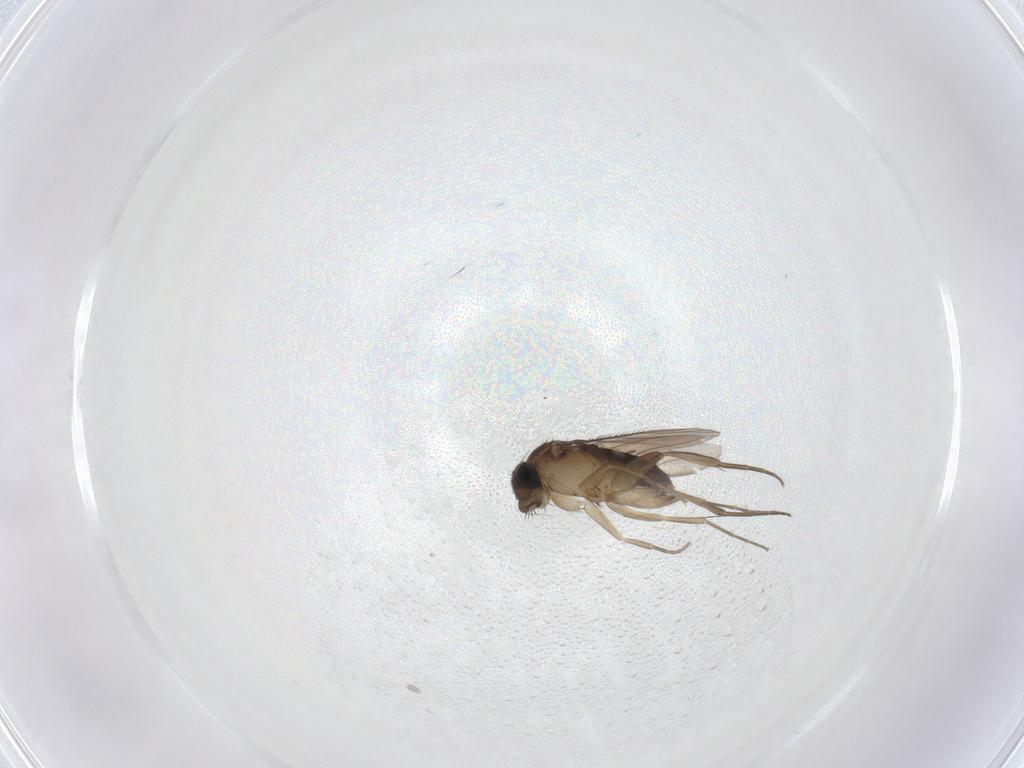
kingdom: Animalia
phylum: Arthropoda
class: Insecta
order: Diptera
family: Phoridae
